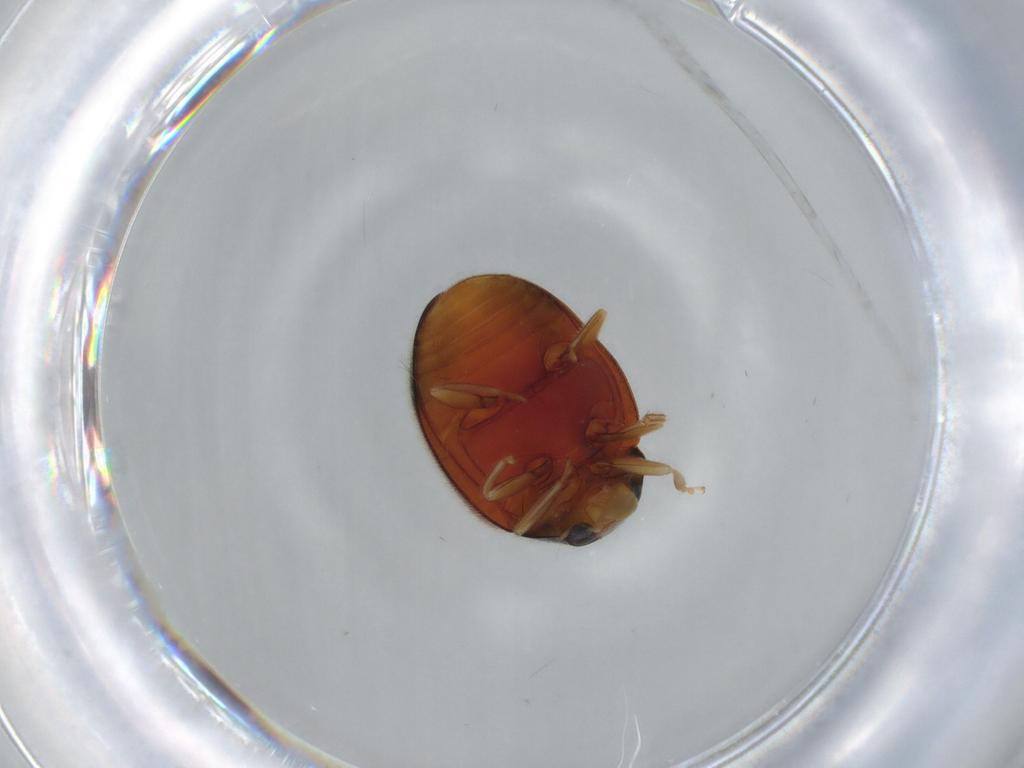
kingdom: Animalia
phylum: Arthropoda
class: Insecta
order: Coleoptera
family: Coccinellidae
